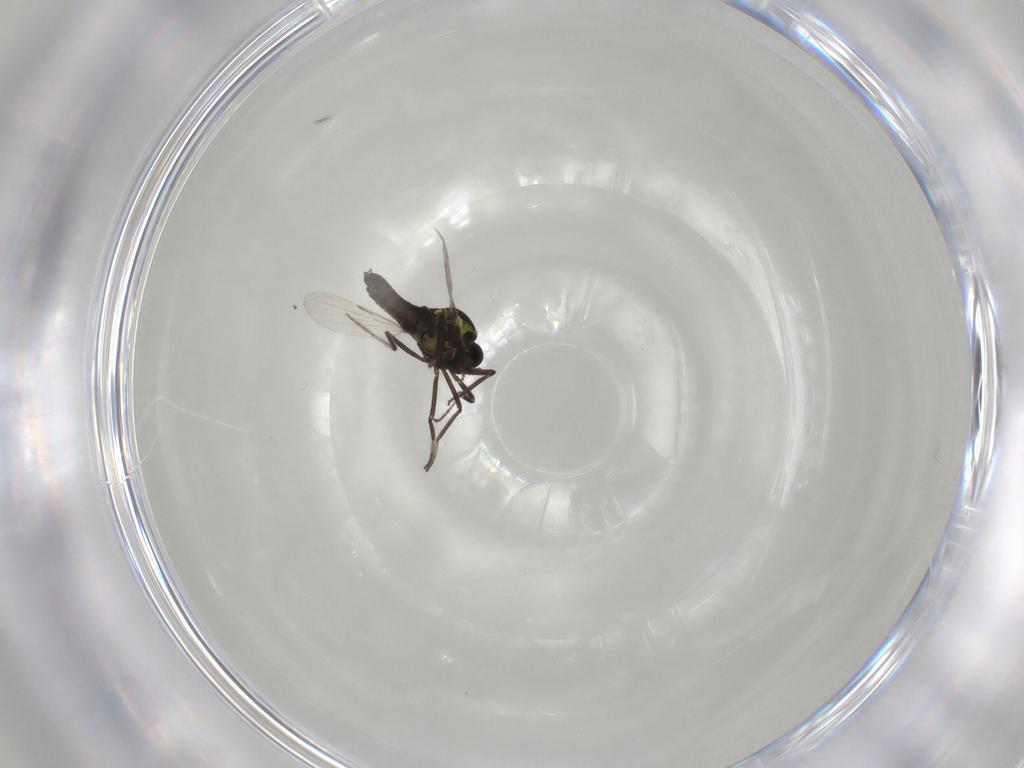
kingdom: Animalia
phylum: Arthropoda
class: Insecta
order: Diptera
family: Ceratopogonidae
